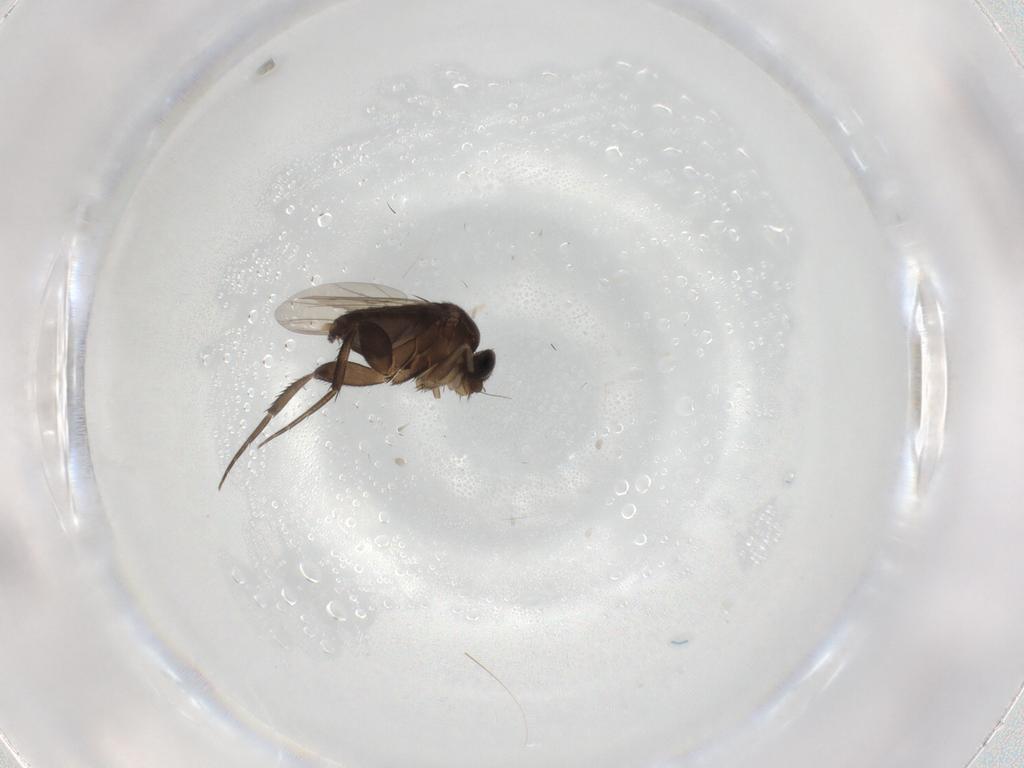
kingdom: Animalia
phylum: Arthropoda
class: Insecta
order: Diptera
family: Phoridae
